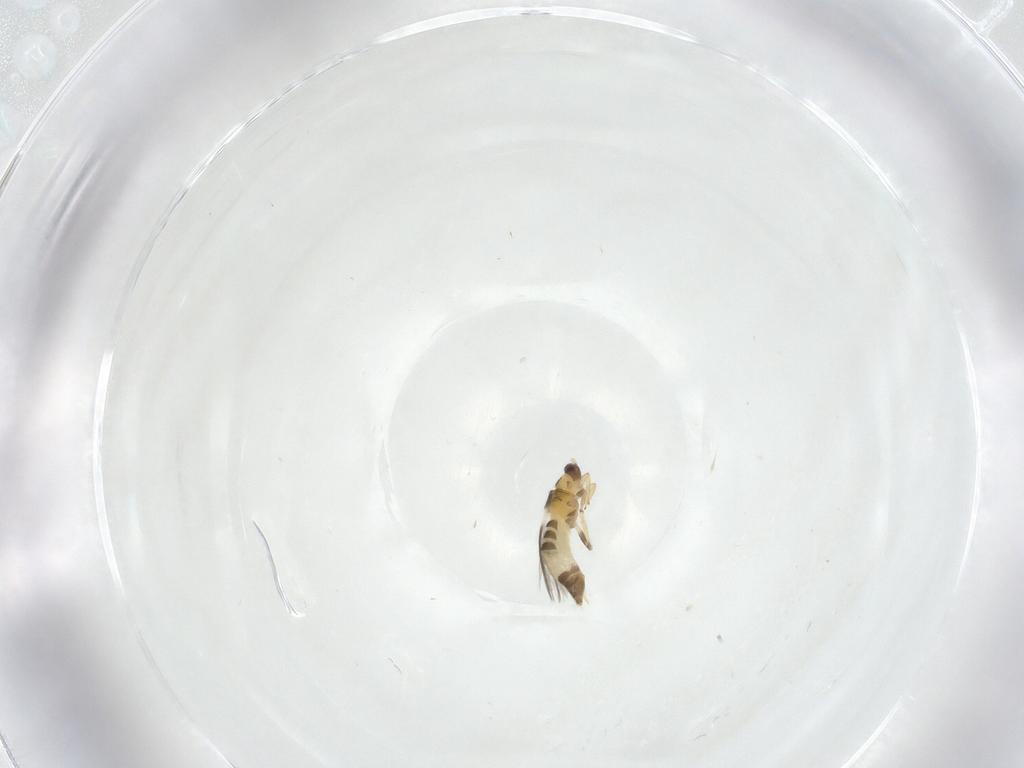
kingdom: Animalia
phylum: Arthropoda
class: Insecta
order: Thysanoptera
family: Thripidae
